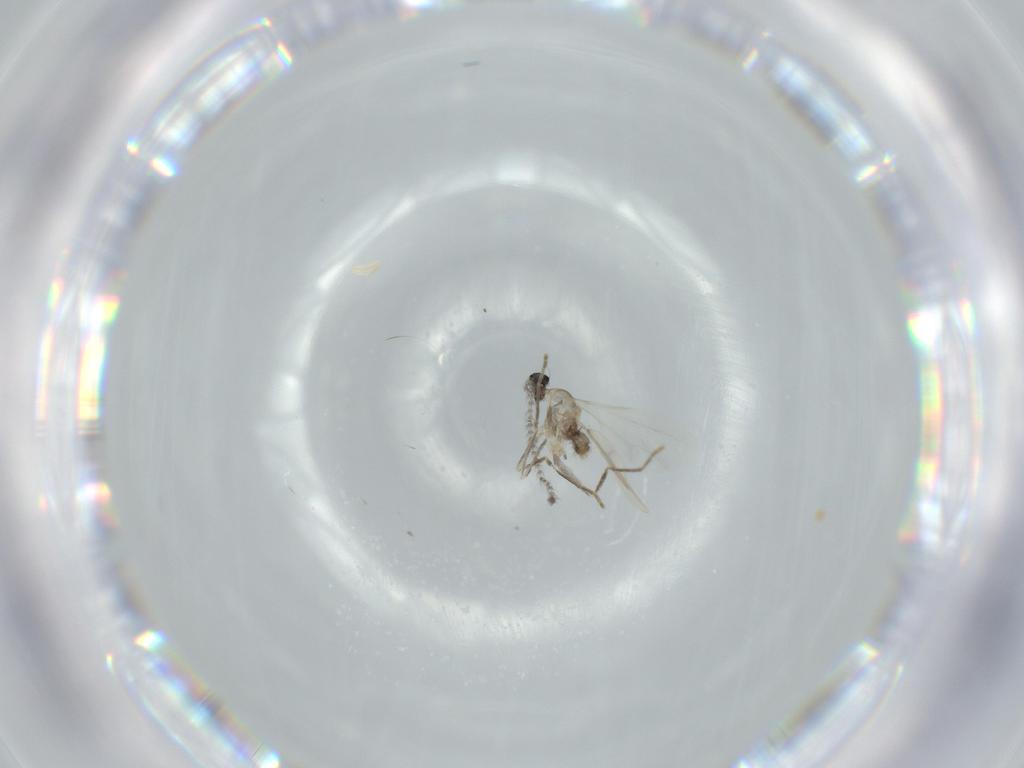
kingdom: Animalia
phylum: Arthropoda
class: Insecta
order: Diptera
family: Cecidomyiidae
